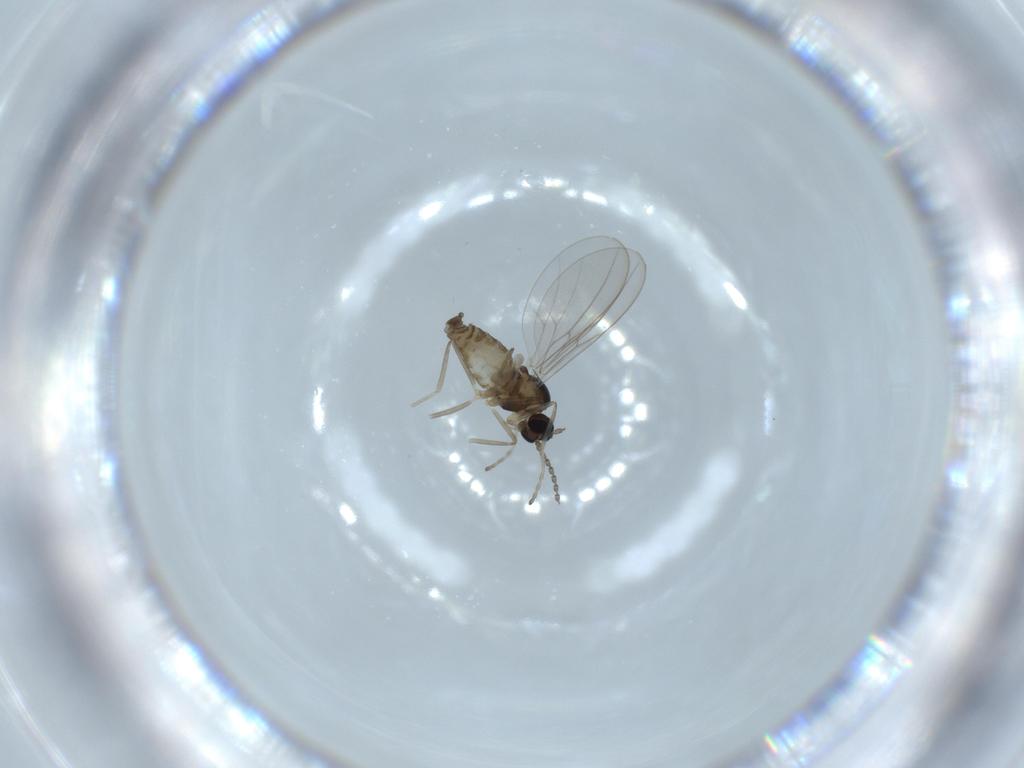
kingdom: Animalia
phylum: Arthropoda
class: Insecta
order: Diptera
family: Cecidomyiidae
